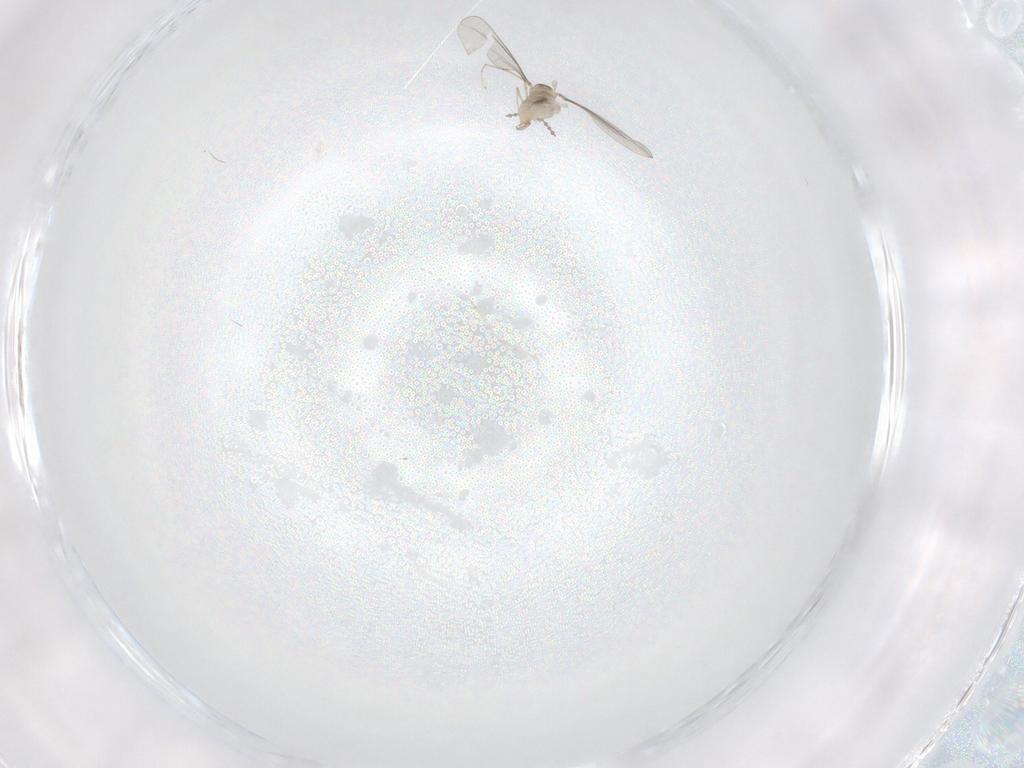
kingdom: Animalia
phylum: Arthropoda
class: Insecta
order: Diptera
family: Cecidomyiidae
